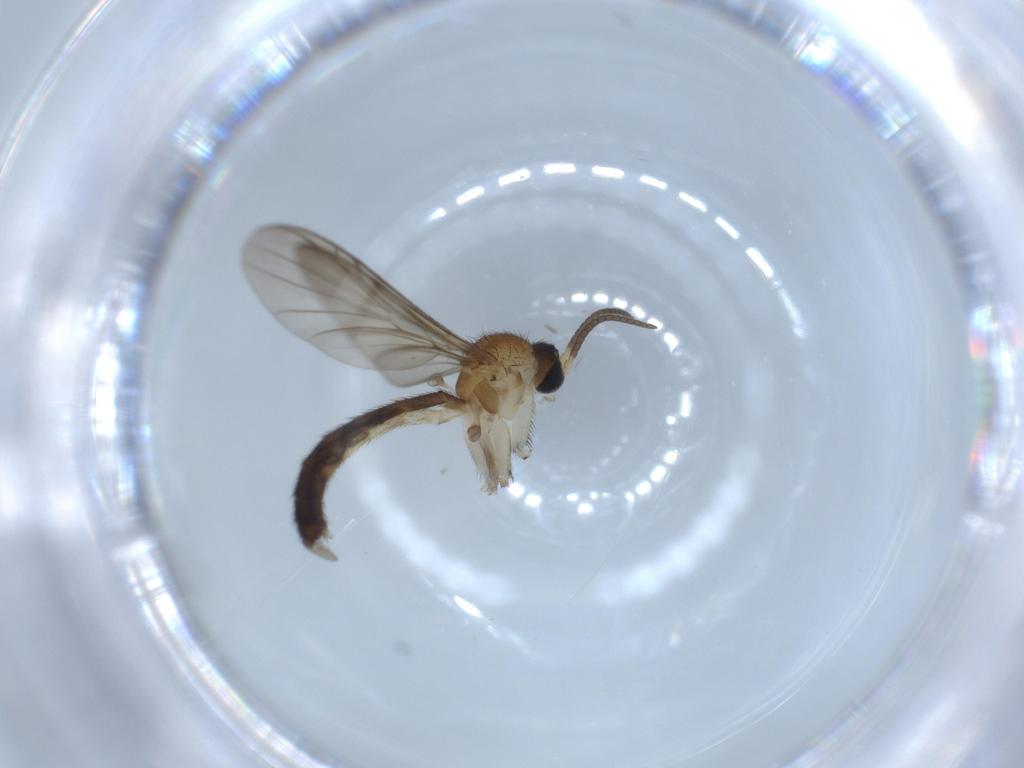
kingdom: Animalia
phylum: Arthropoda
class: Insecta
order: Diptera
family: Keroplatidae
